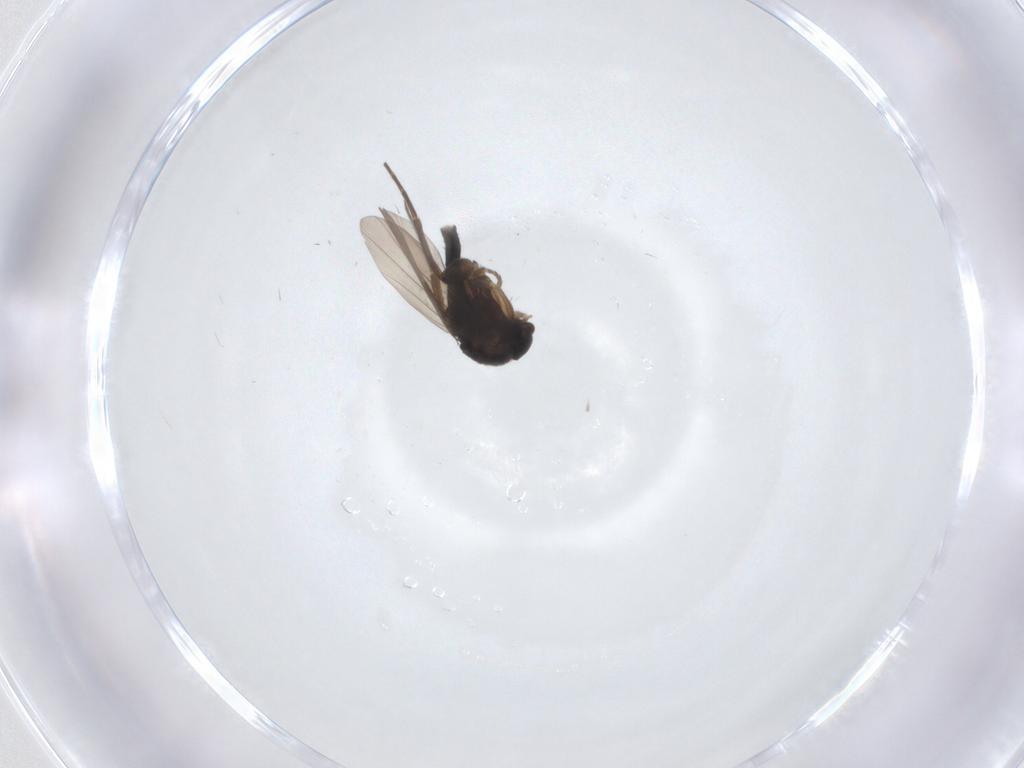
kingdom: Animalia
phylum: Arthropoda
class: Insecta
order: Diptera
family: Phoridae
